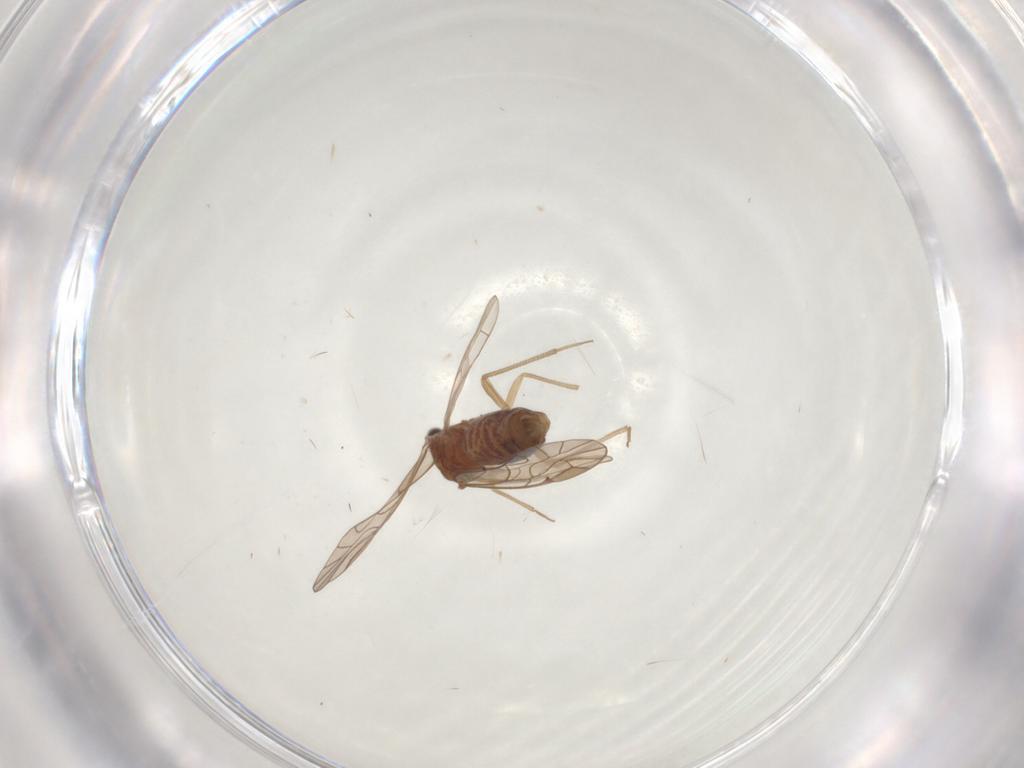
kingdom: Animalia
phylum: Arthropoda
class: Insecta
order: Psocodea
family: Lachesillidae
